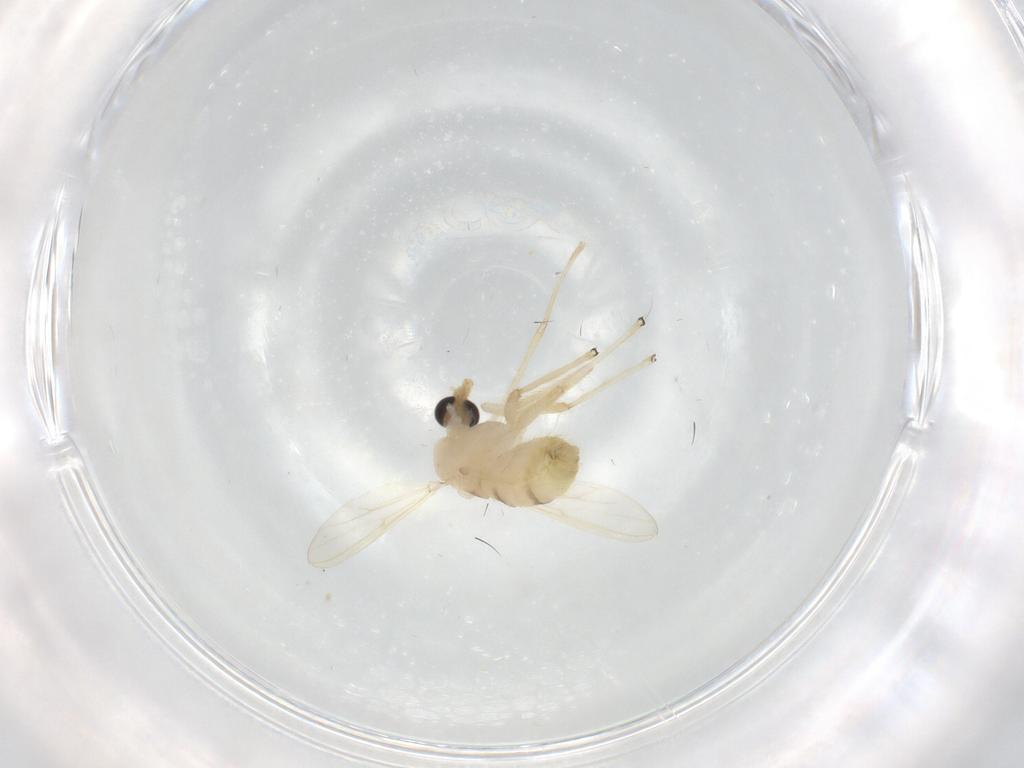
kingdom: Animalia
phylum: Arthropoda
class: Insecta
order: Diptera
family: Chironomidae
